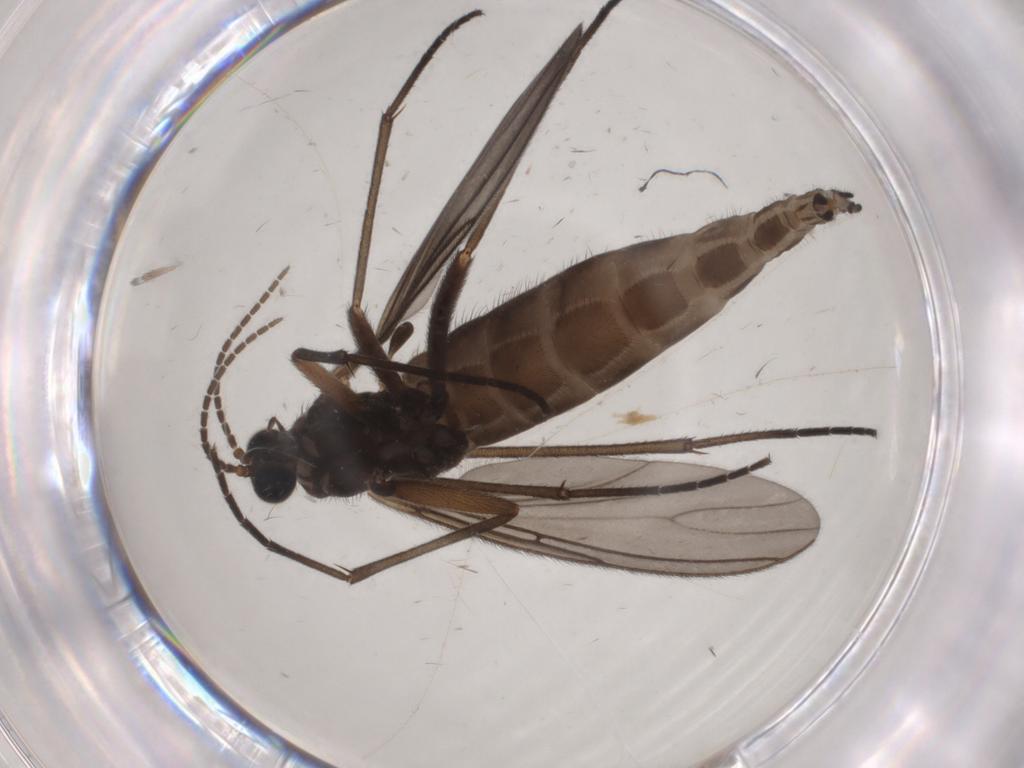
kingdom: Animalia
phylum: Arthropoda
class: Insecta
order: Diptera
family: Sciaridae
